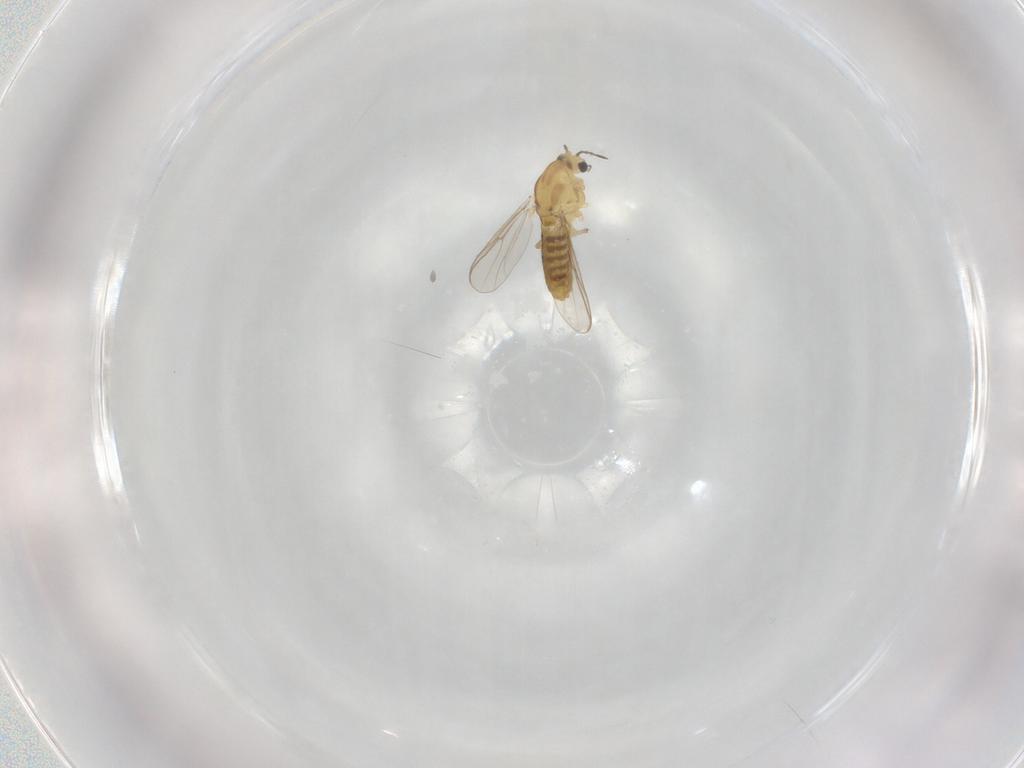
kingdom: Animalia
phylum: Arthropoda
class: Insecta
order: Diptera
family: Chironomidae
